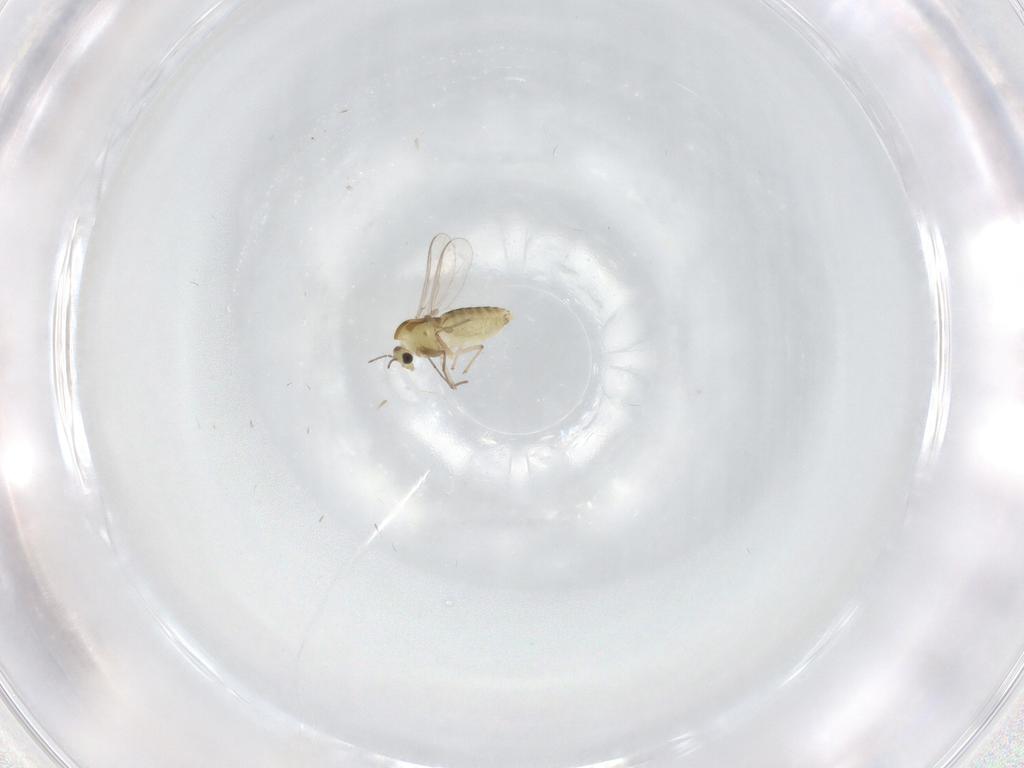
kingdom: Animalia
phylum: Arthropoda
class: Insecta
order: Diptera
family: Chironomidae
